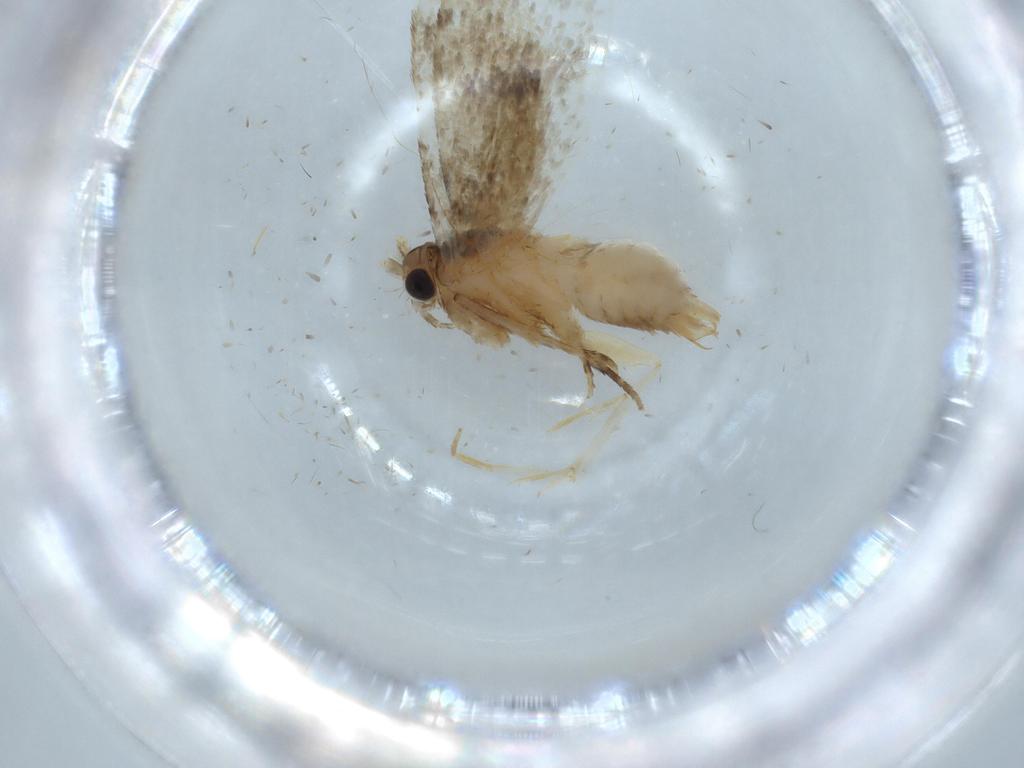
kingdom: Animalia
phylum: Arthropoda
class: Insecta
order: Lepidoptera
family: Tineidae
